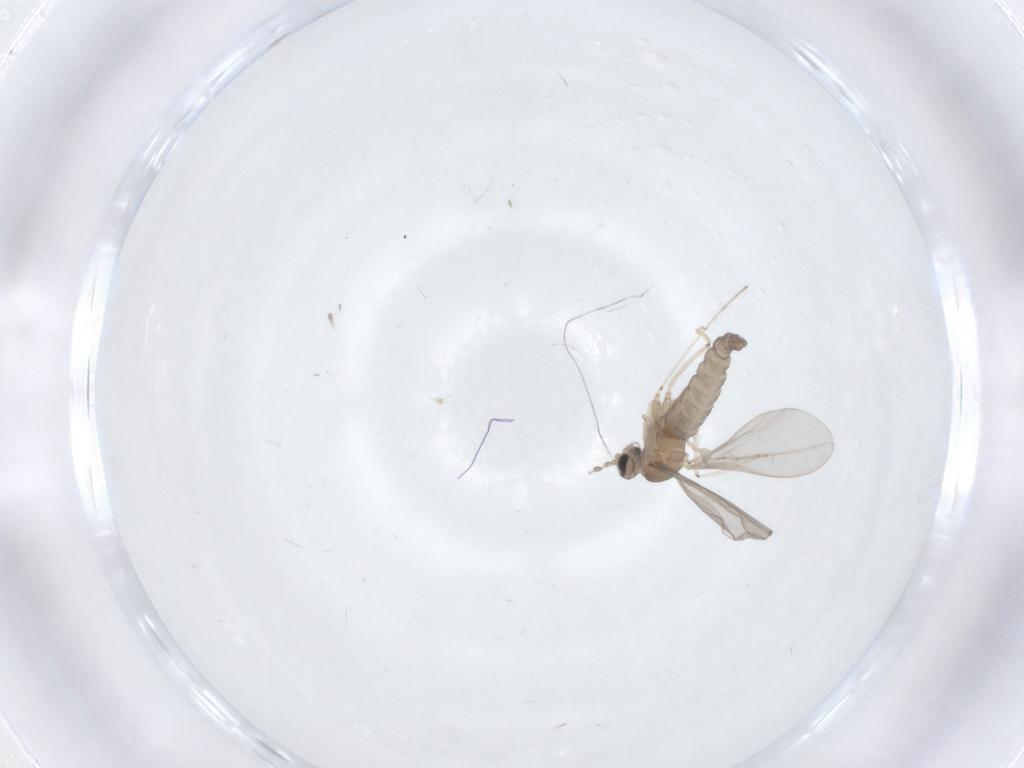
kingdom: Animalia
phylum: Arthropoda
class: Insecta
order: Diptera
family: Cecidomyiidae
